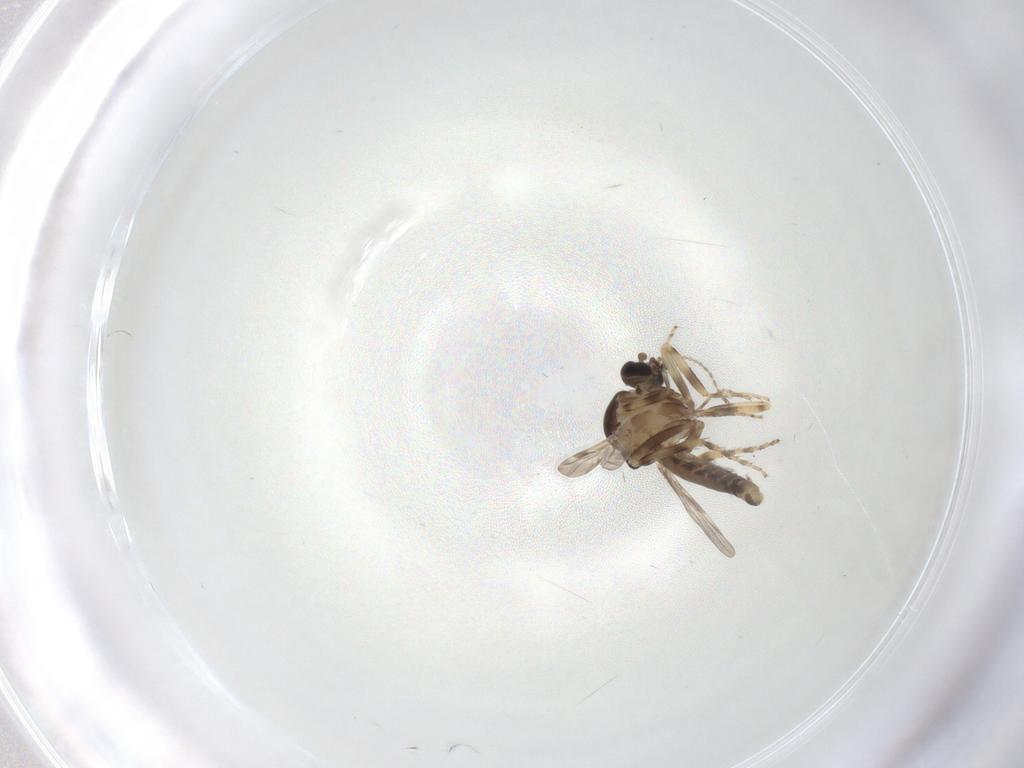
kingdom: Animalia
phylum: Arthropoda
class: Insecta
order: Diptera
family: Ceratopogonidae
